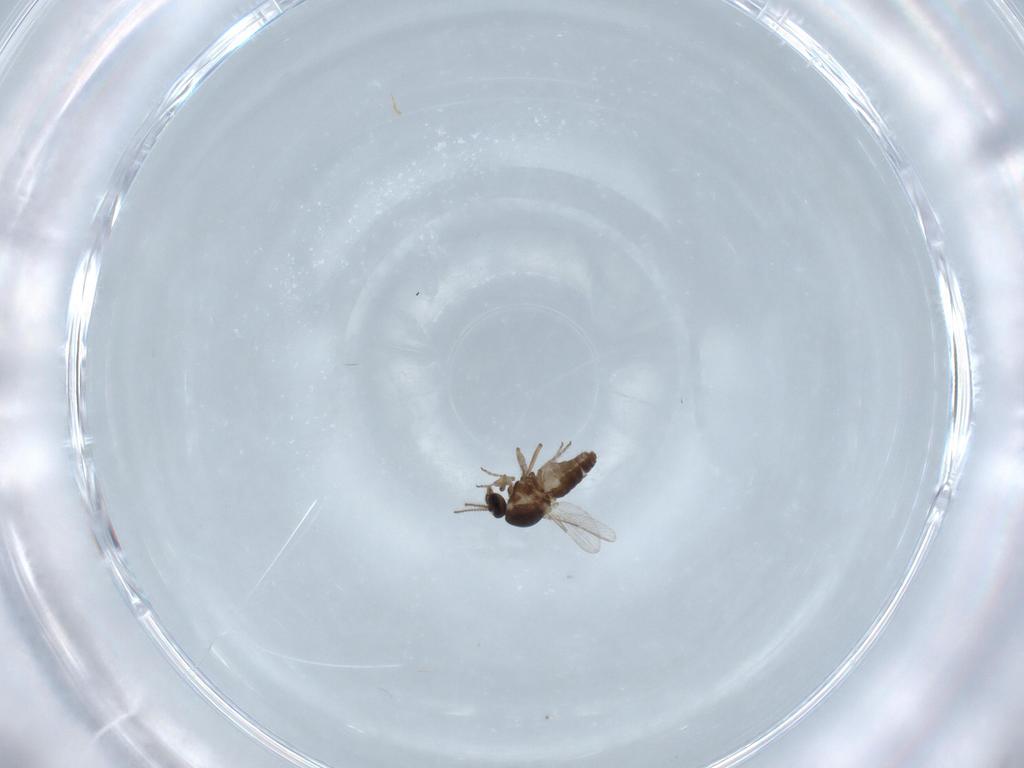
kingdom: Animalia
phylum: Arthropoda
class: Insecta
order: Diptera
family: Ceratopogonidae
